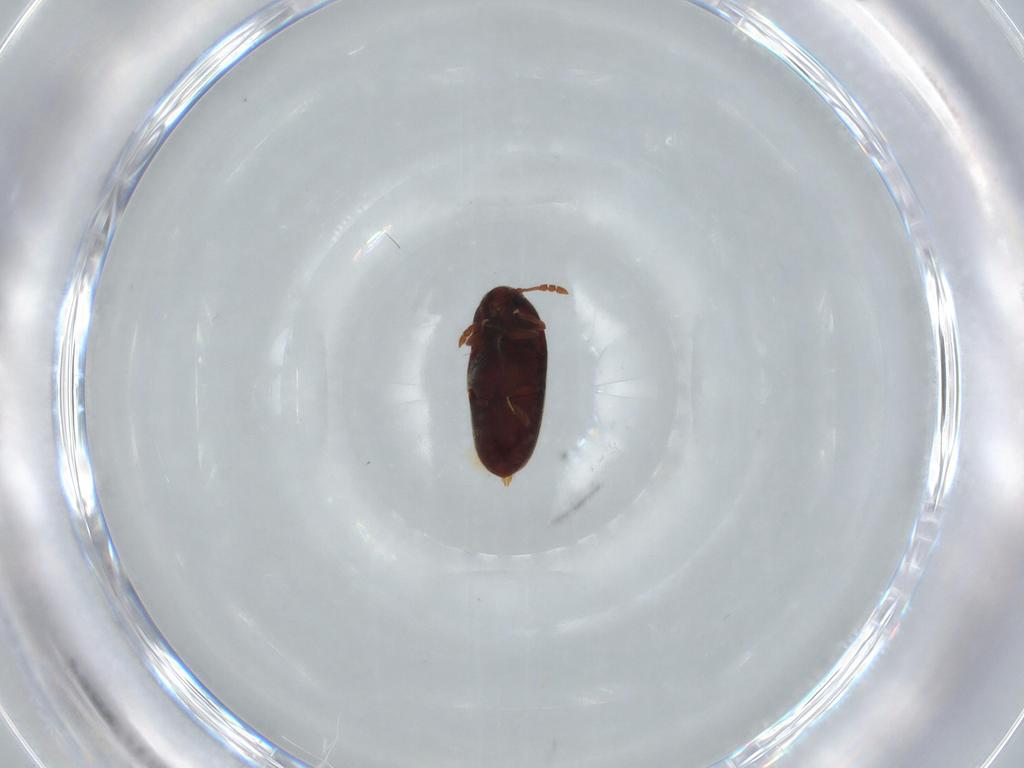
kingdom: Animalia
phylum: Arthropoda
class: Insecta
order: Coleoptera
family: Throscidae
